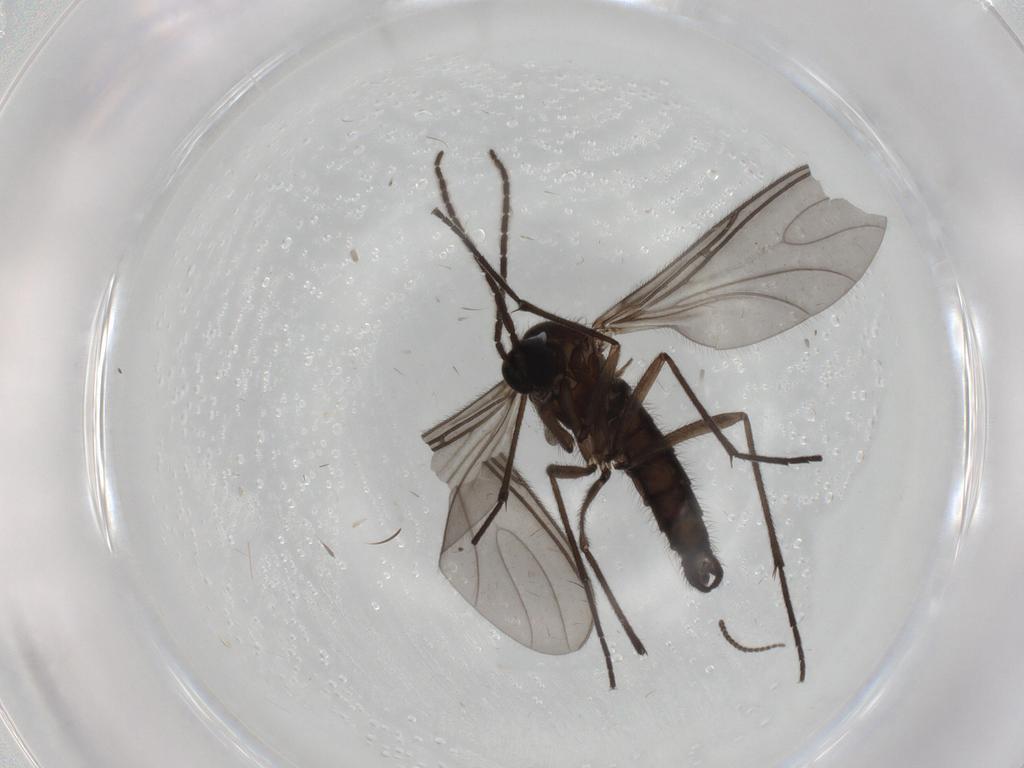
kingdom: Animalia
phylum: Arthropoda
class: Insecta
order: Diptera
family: Sciaridae
